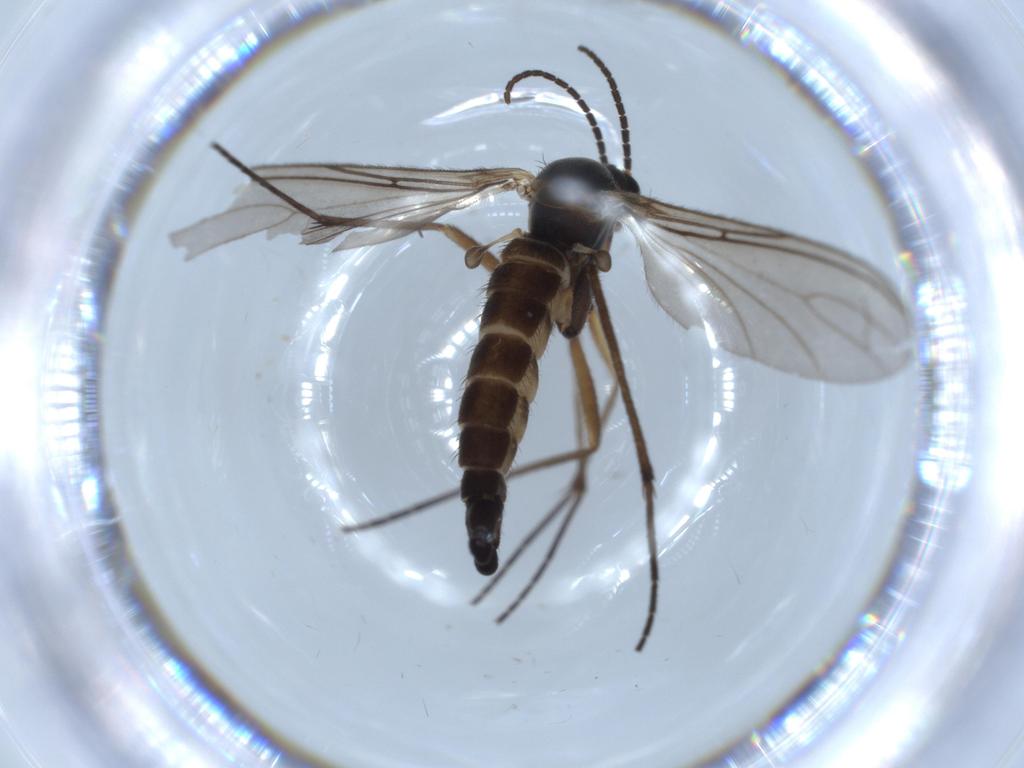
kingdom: Animalia
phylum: Arthropoda
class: Insecta
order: Diptera
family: Sciaridae
